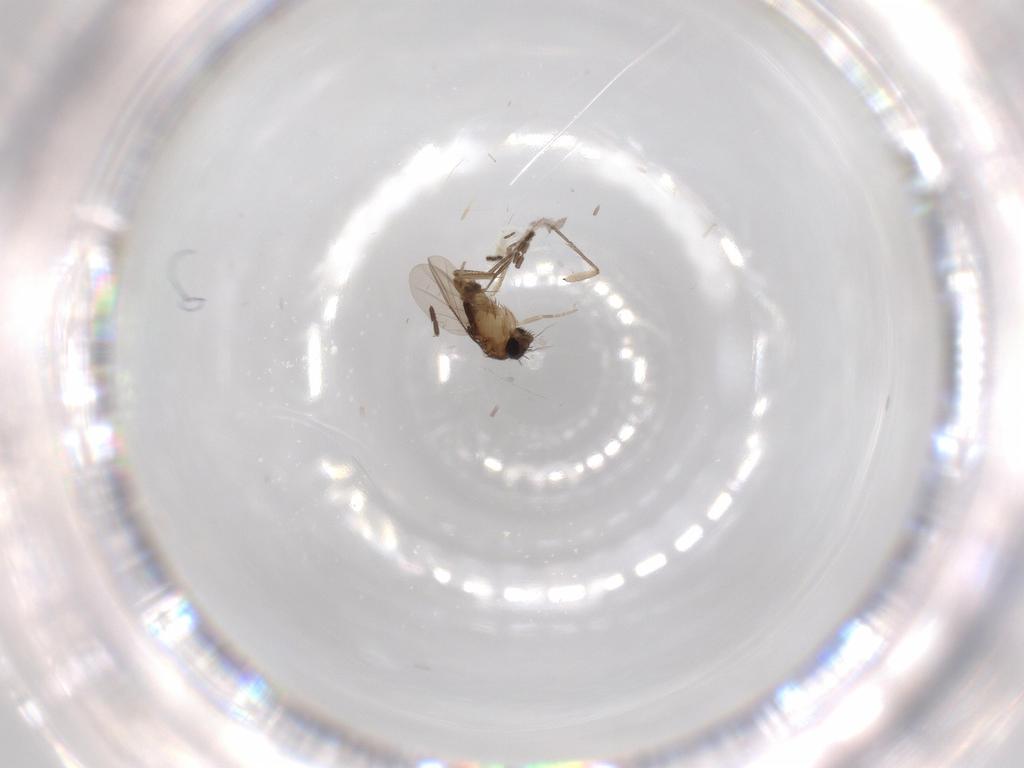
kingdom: Animalia
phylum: Arthropoda
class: Insecta
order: Diptera
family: Phoridae
